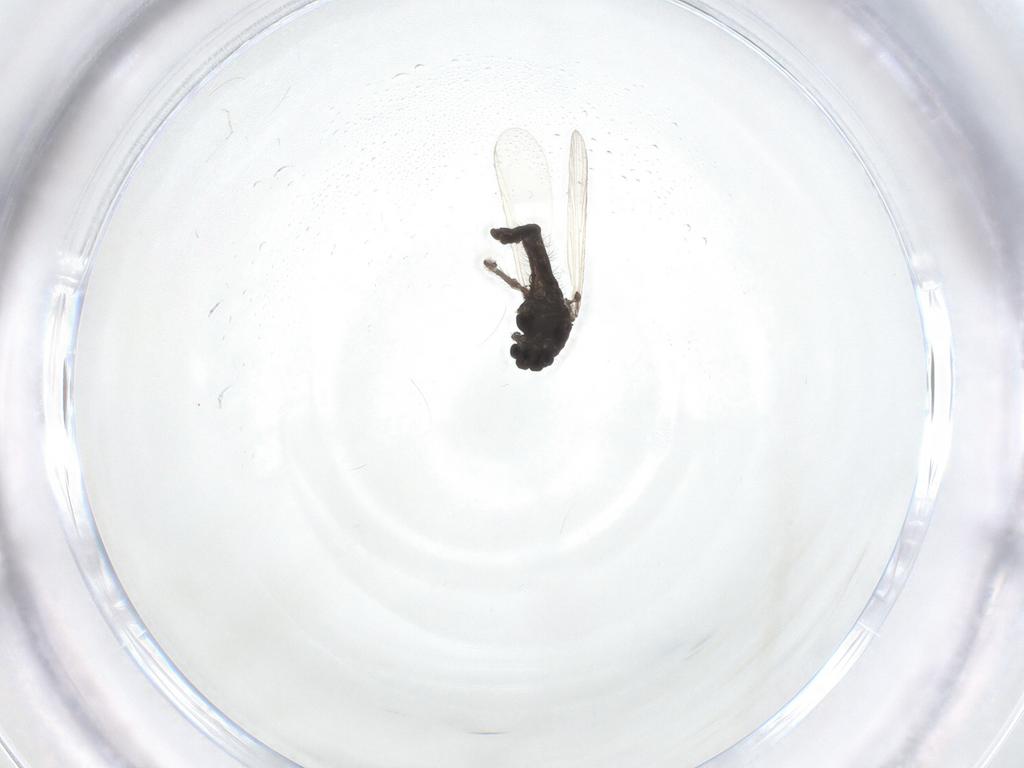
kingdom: Animalia
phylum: Arthropoda
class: Insecta
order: Diptera
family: Chironomidae
